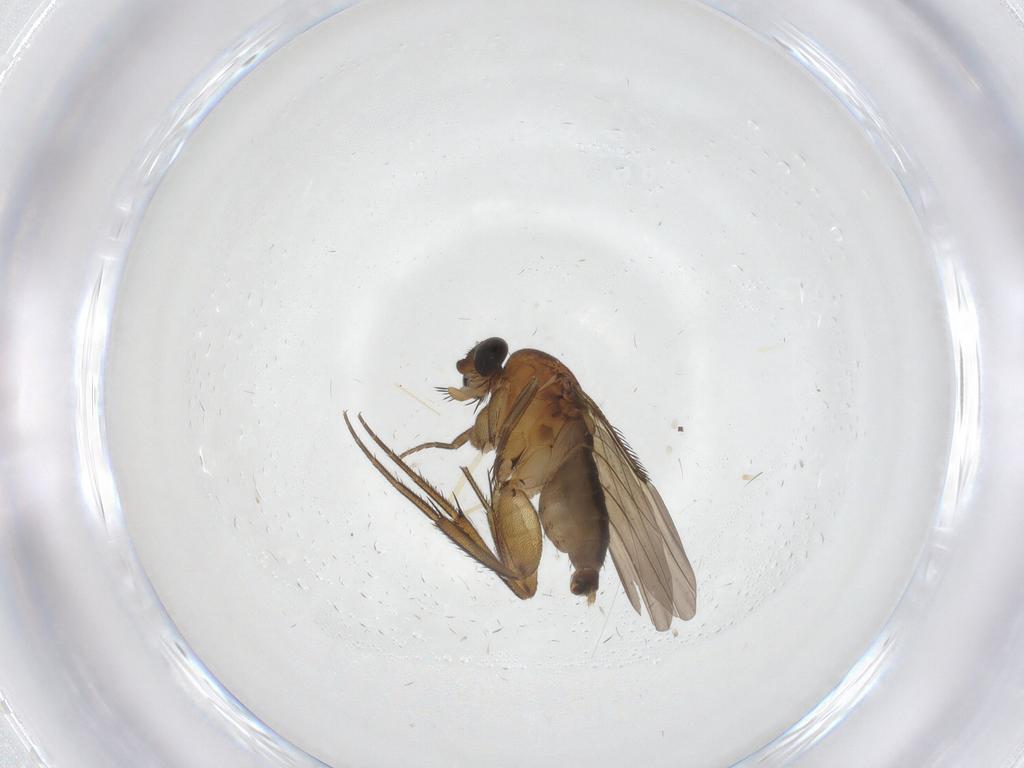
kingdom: Animalia
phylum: Arthropoda
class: Insecta
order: Diptera
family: Phoridae
